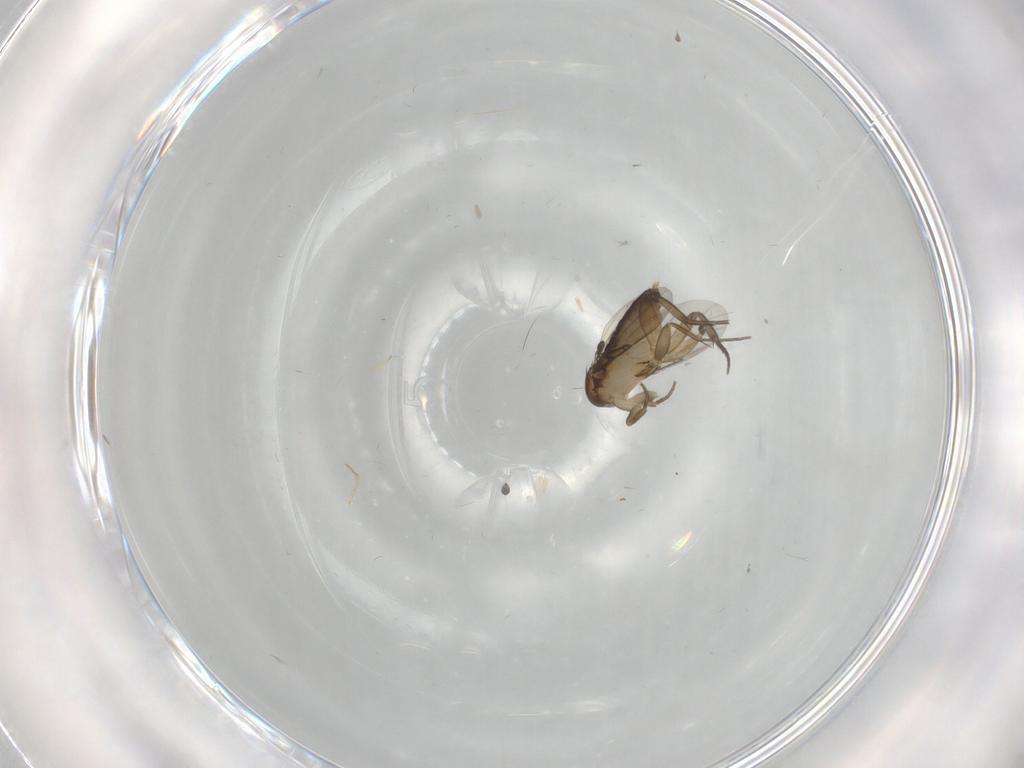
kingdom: Animalia
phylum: Arthropoda
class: Insecta
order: Diptera
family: Phoridae
